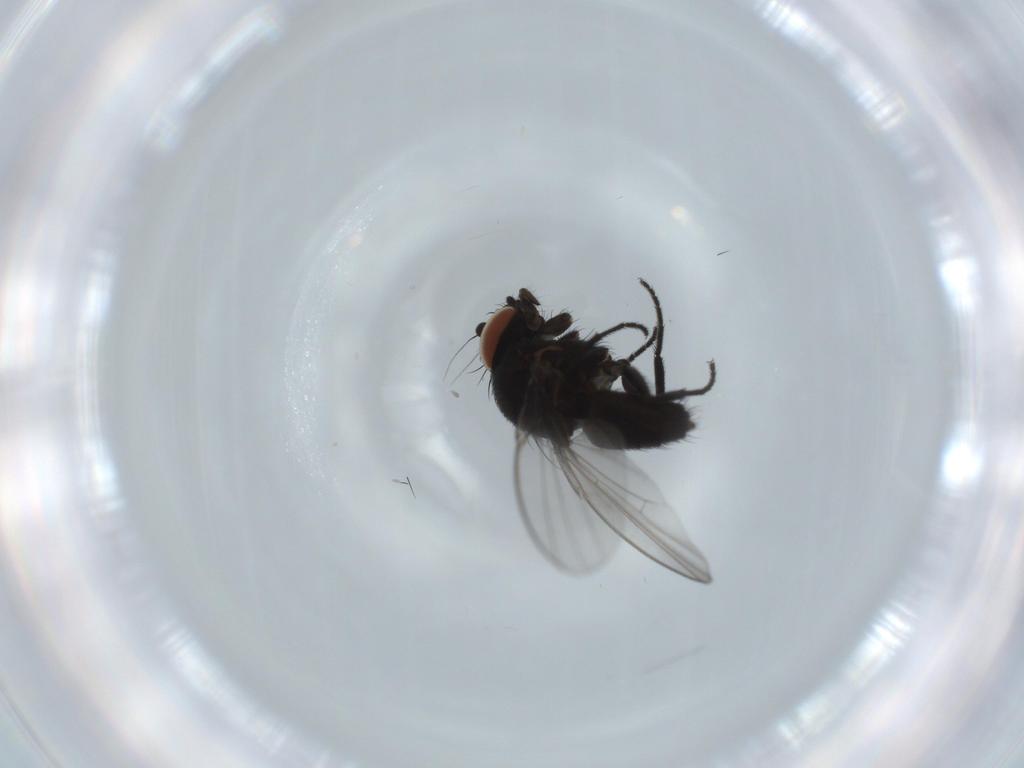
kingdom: Animalia
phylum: Arthropoda
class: Insecta
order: Diptera
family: Milichiidae
